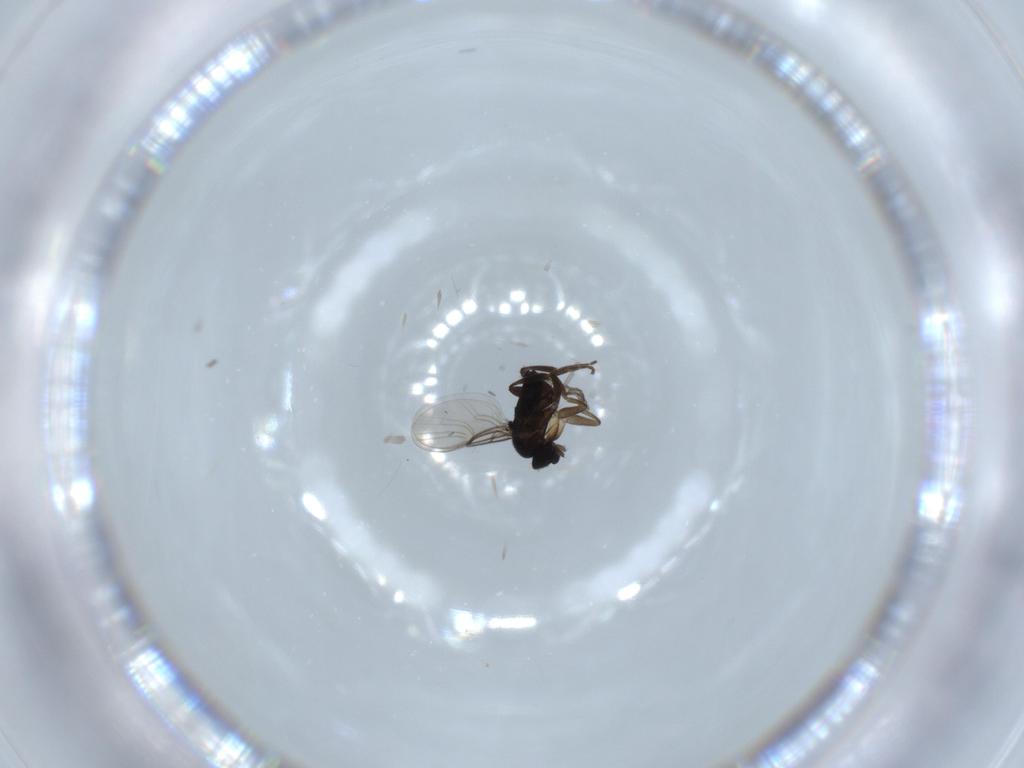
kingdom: Animalia
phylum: Arthropoda
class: Insecta
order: Diptera
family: Phoridae
